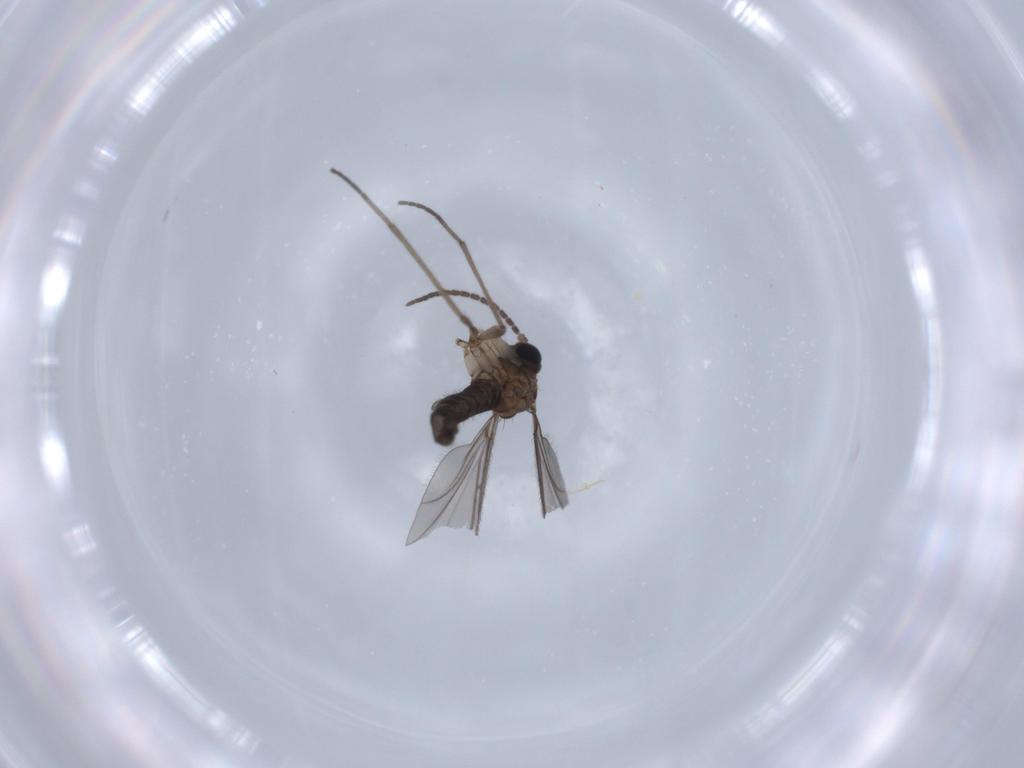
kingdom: Animalia
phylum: Arthropoda
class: Insecta
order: Diptera
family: Sciaridae
